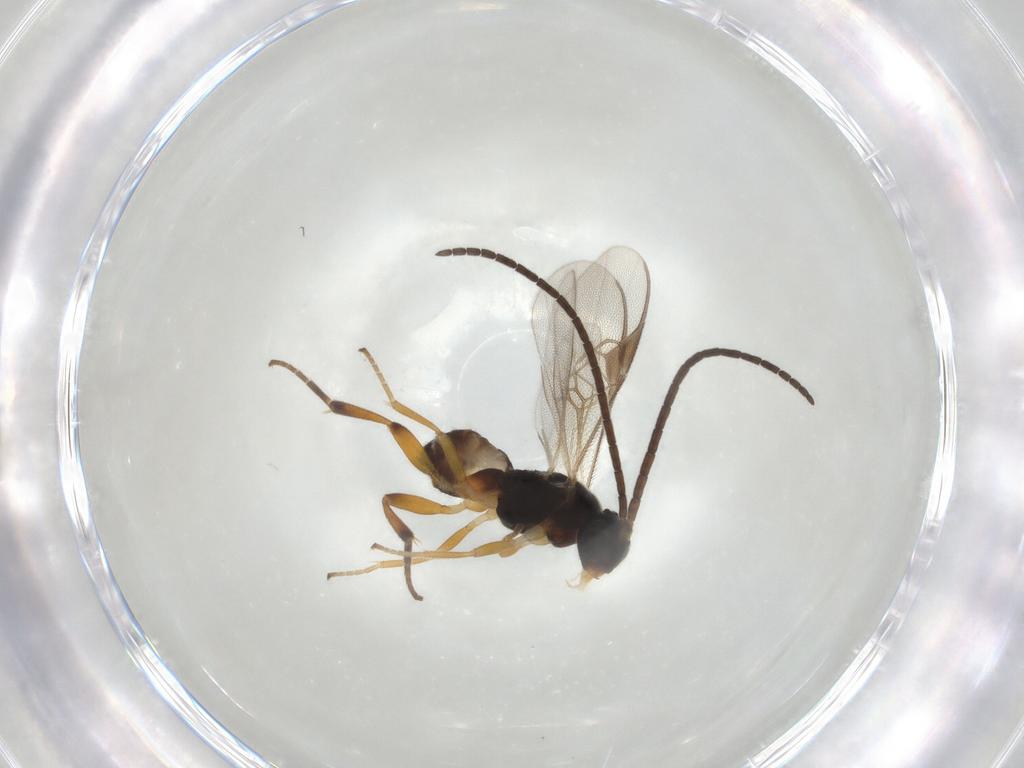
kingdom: Animalia
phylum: Arthropoda
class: Insecta
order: Hymenoptera
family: Braconidae
